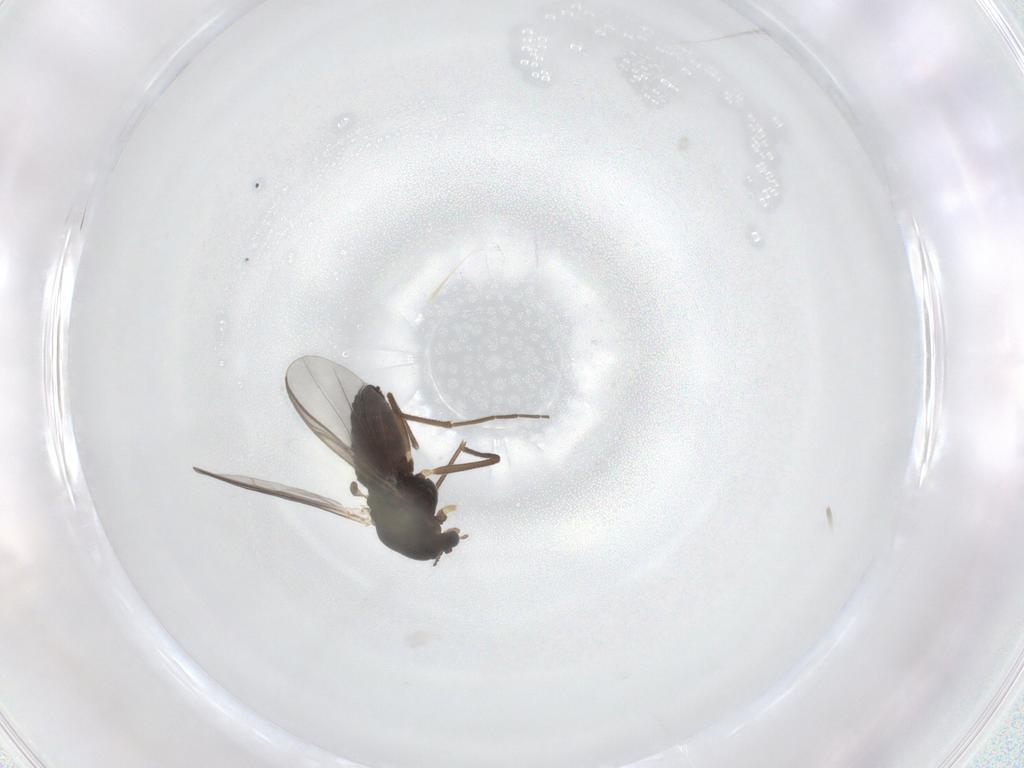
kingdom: Animalia
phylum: Arthropoda
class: Insecta
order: Diptera
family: Chironomidae
